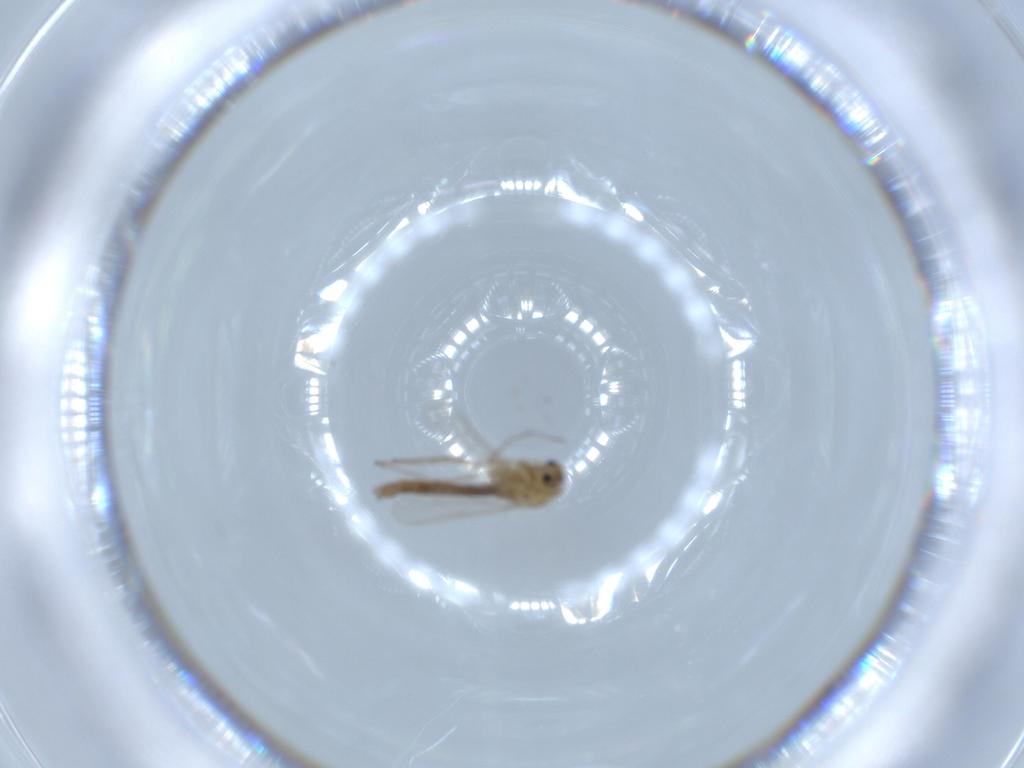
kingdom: Animalia
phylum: Arthropoda
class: Insecta
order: Diptera
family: Chironomidae
